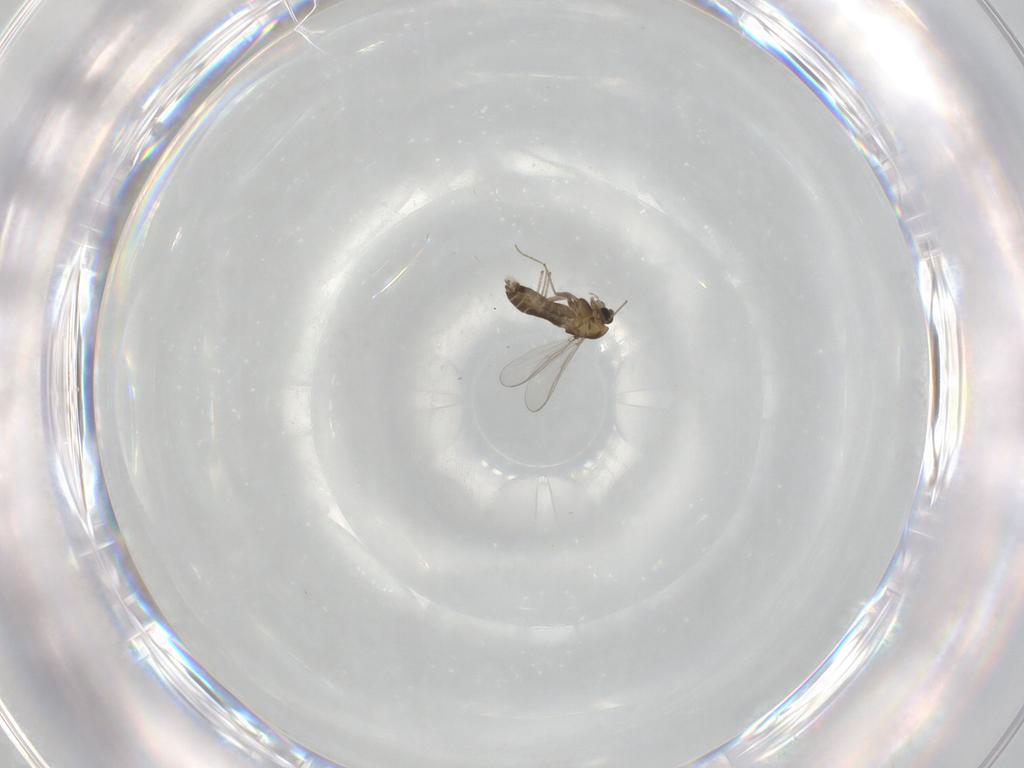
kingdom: Animalia
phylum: Arthropoda
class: Insecta
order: Diptera
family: Chironomidae
